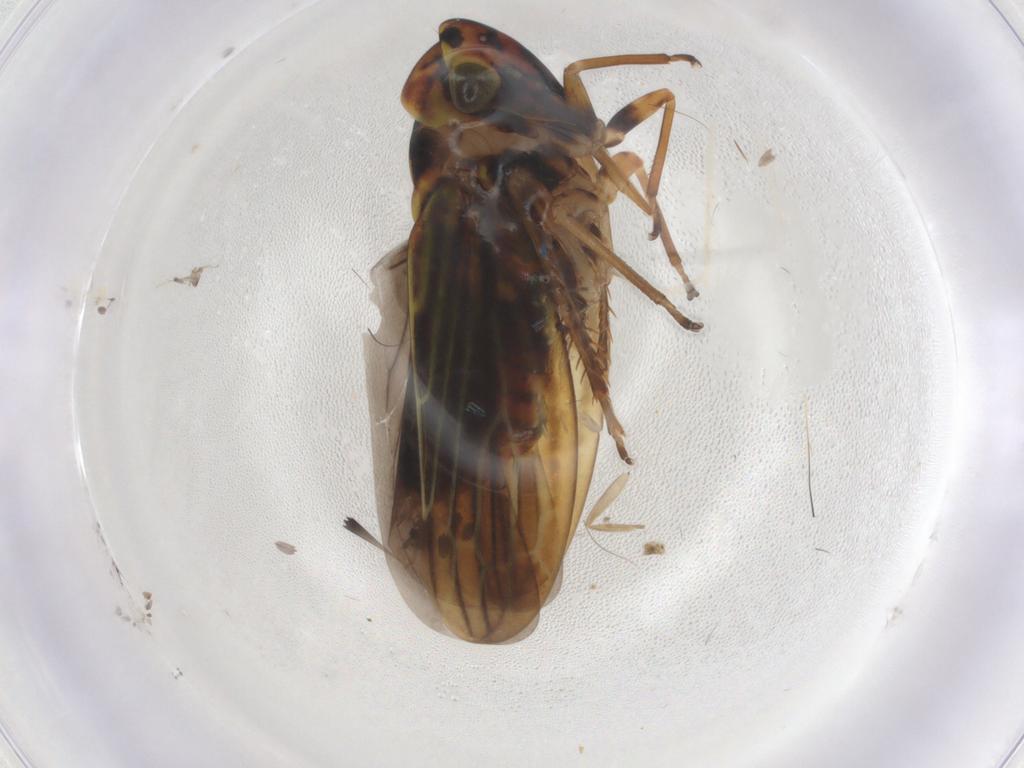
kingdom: Animalia
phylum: Arthropoda
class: Insecta
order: Hemiptera
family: Cicadellidae
